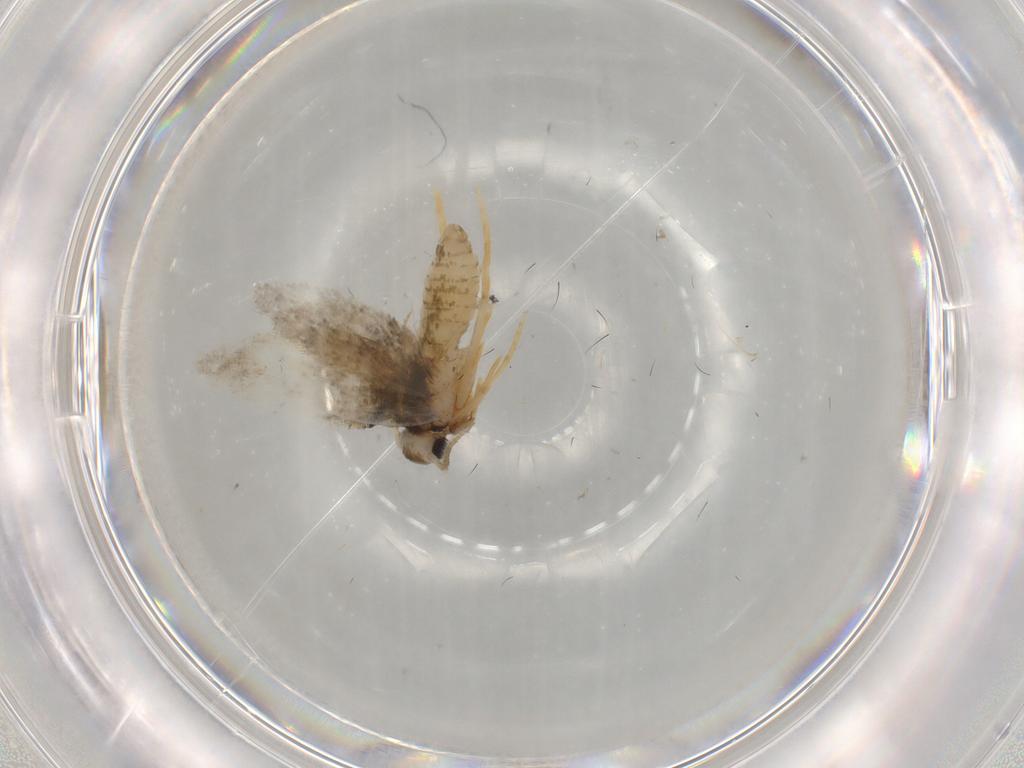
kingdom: Animalia
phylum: Arthropoda
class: Insecta
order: Lepidoptera
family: Psychidae
